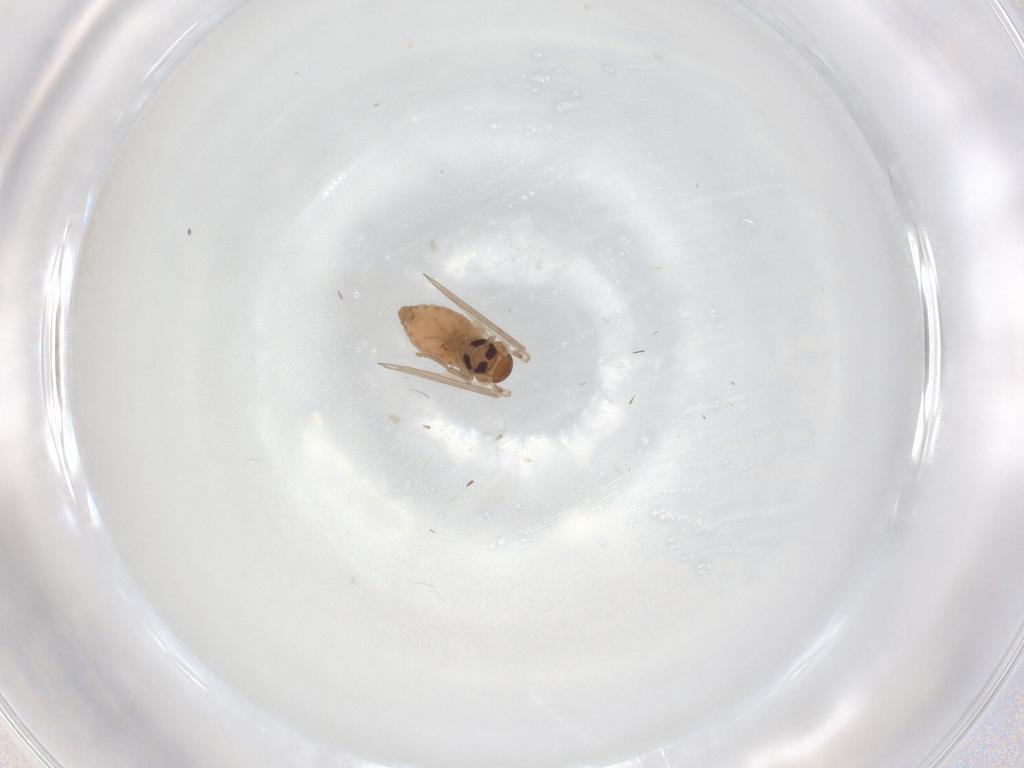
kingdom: Animalia
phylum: Arthropoda
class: Insecta
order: Diptera
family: Psychodidae
